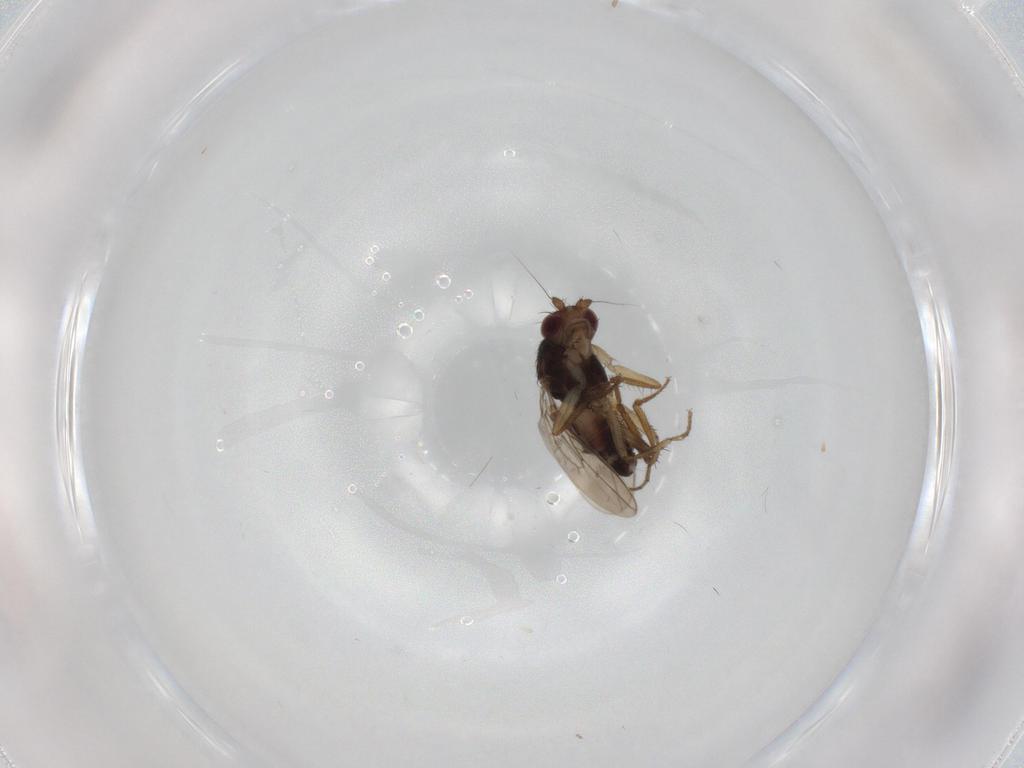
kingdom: Animalia
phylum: Arthropoda
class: Insecta
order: Diptera
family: Sphaeroceridae
